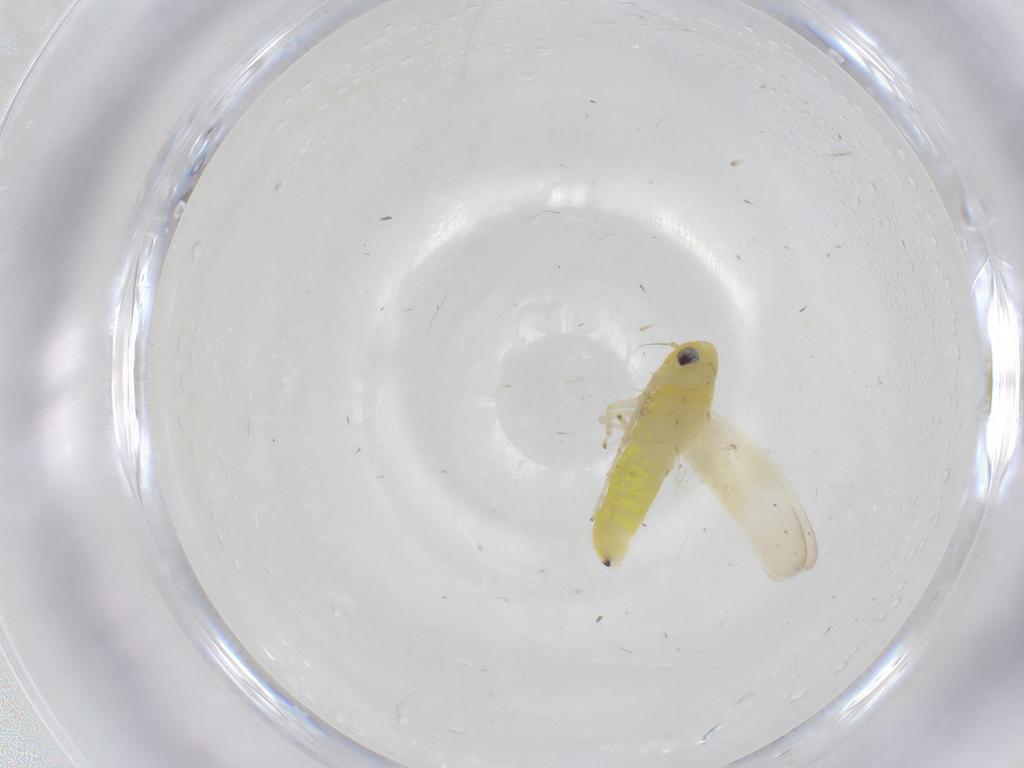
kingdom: Animalia
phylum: Arthropoda
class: Insecta
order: Hemiptera
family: Cicadellidae
